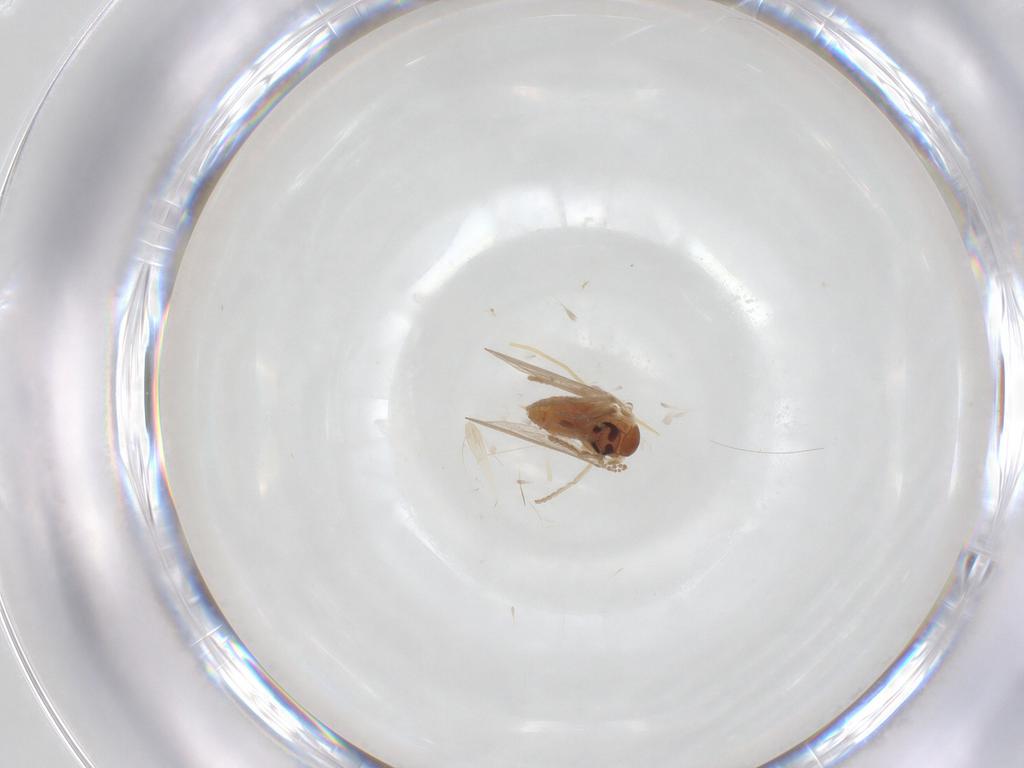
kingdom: Animalia
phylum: Arthropoda
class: Insecta
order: Diptera
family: Psychodidae
